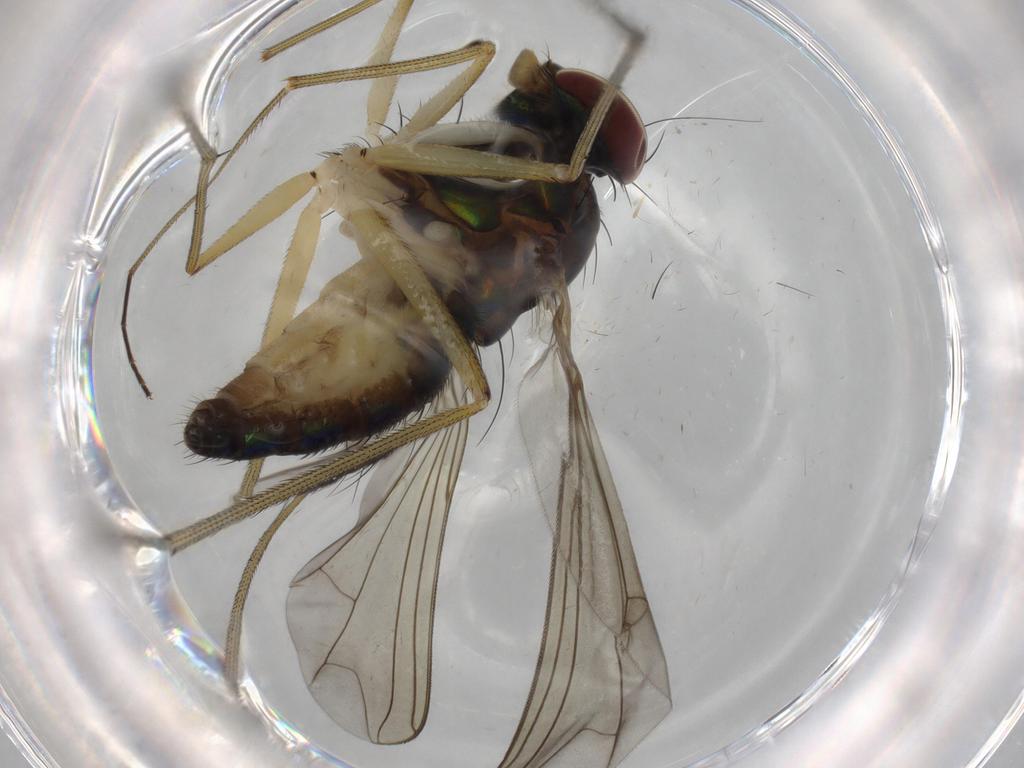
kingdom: Animalia
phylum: Arthropoda
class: Insecta
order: Diptera
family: Dolichopodidae
